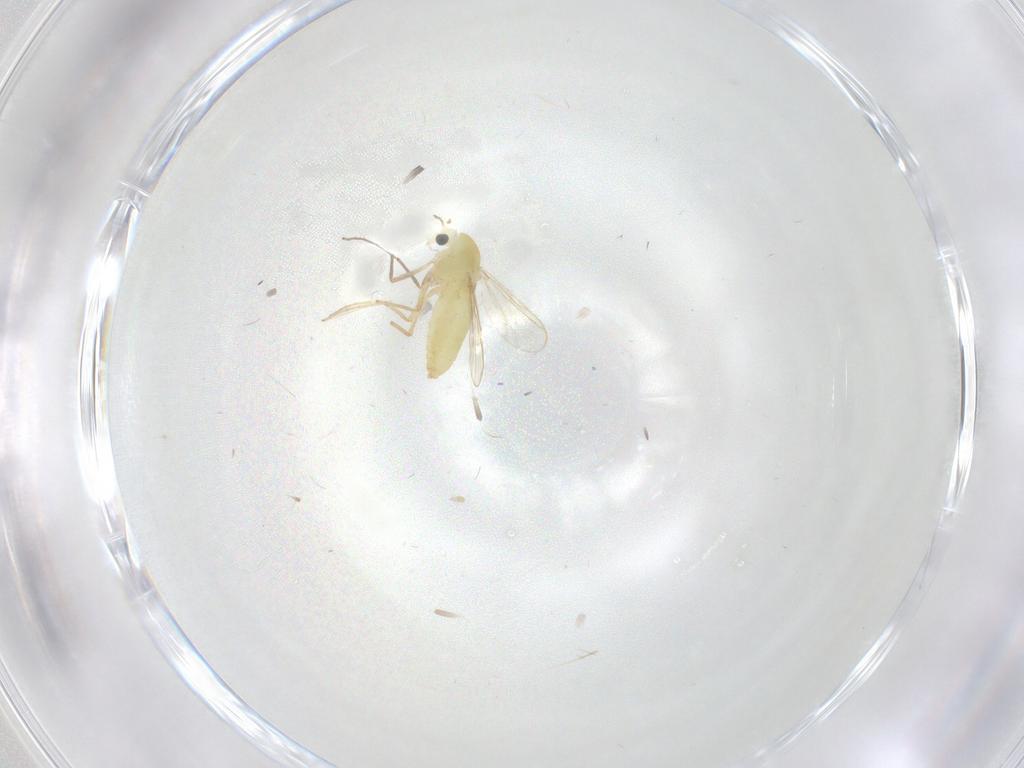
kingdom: Animalia
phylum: Arthropoda
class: Insecta
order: Diptera
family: Chironomidae
